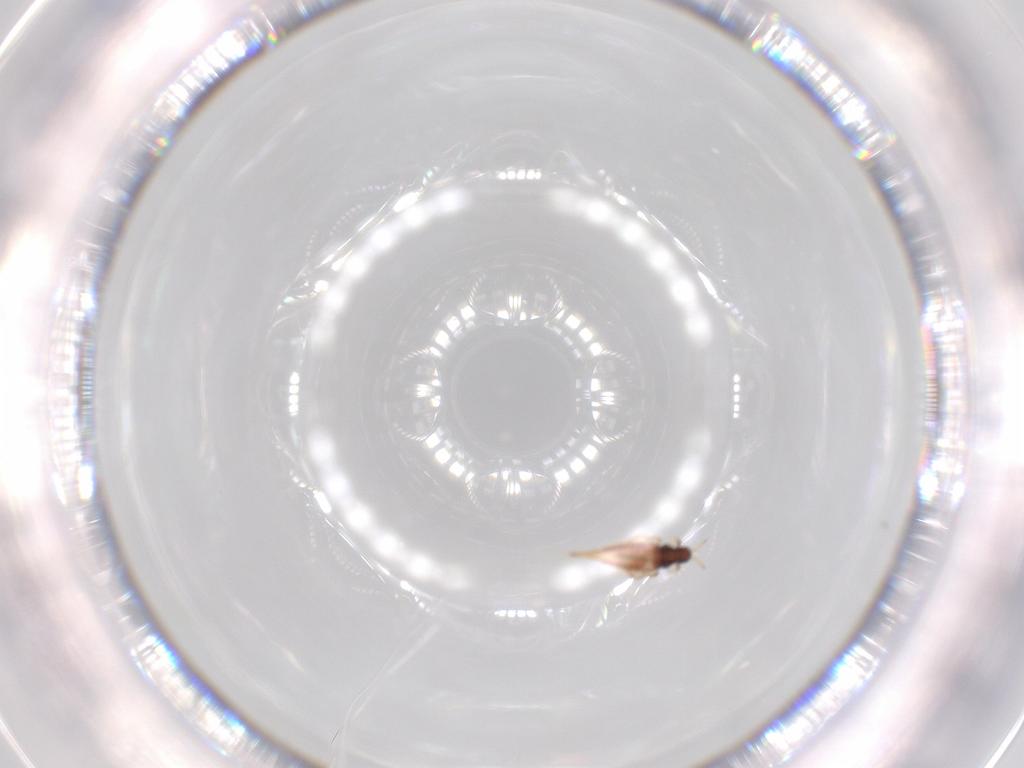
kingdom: Animalia
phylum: Arthropoda
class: Insecta
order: Thysanoptera
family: Phlaeothripidae
